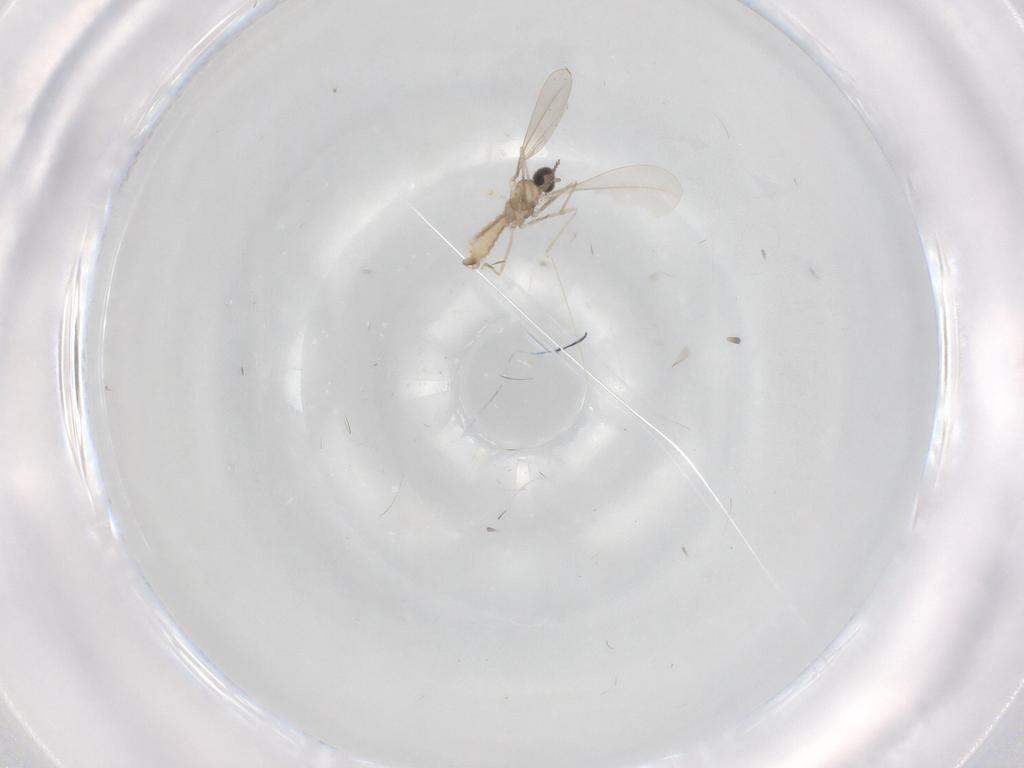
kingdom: Animalia
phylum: Arthropoda
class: Insecta
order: Diptera
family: Cecidomyiidae
